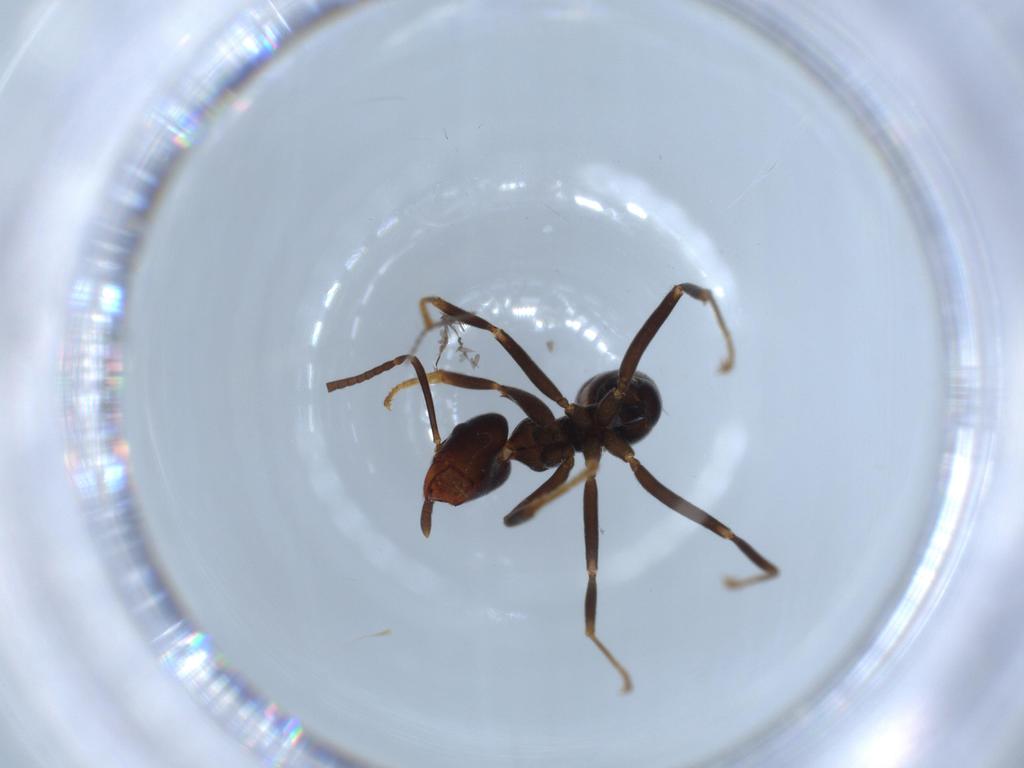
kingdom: Animalia
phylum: Arthropoda
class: Insecta
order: Hymenoptera
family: Formicidae
